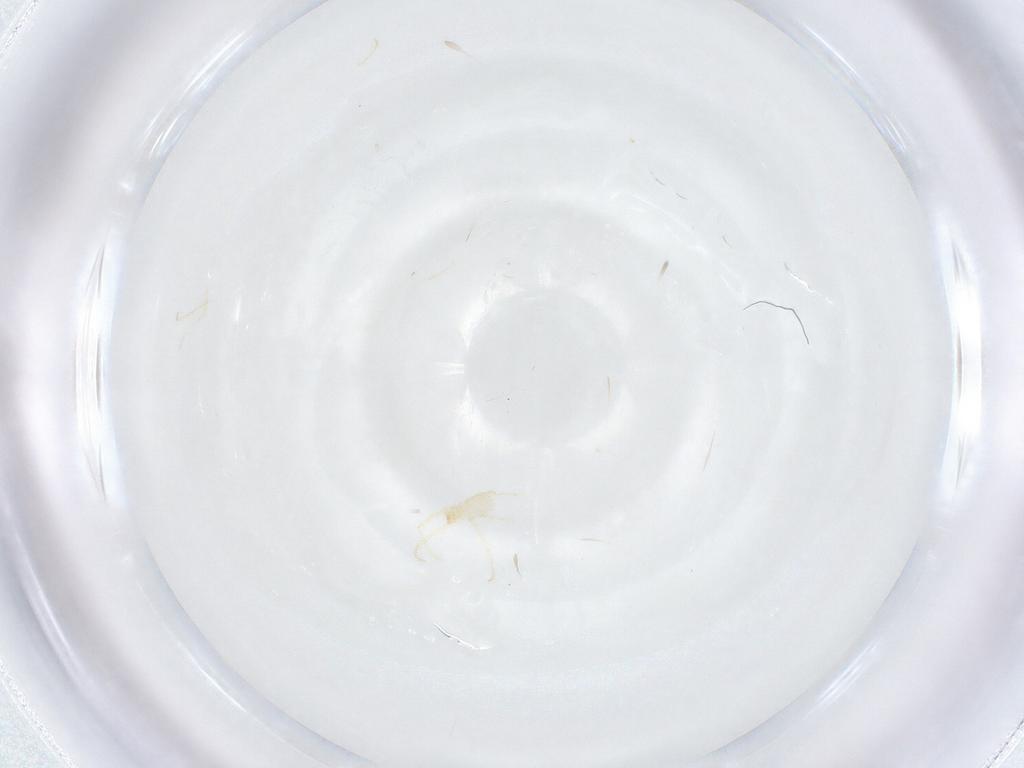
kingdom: Animalia
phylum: Arthropoda
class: Arachnida
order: Trombidiformes
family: Erythraeidae
